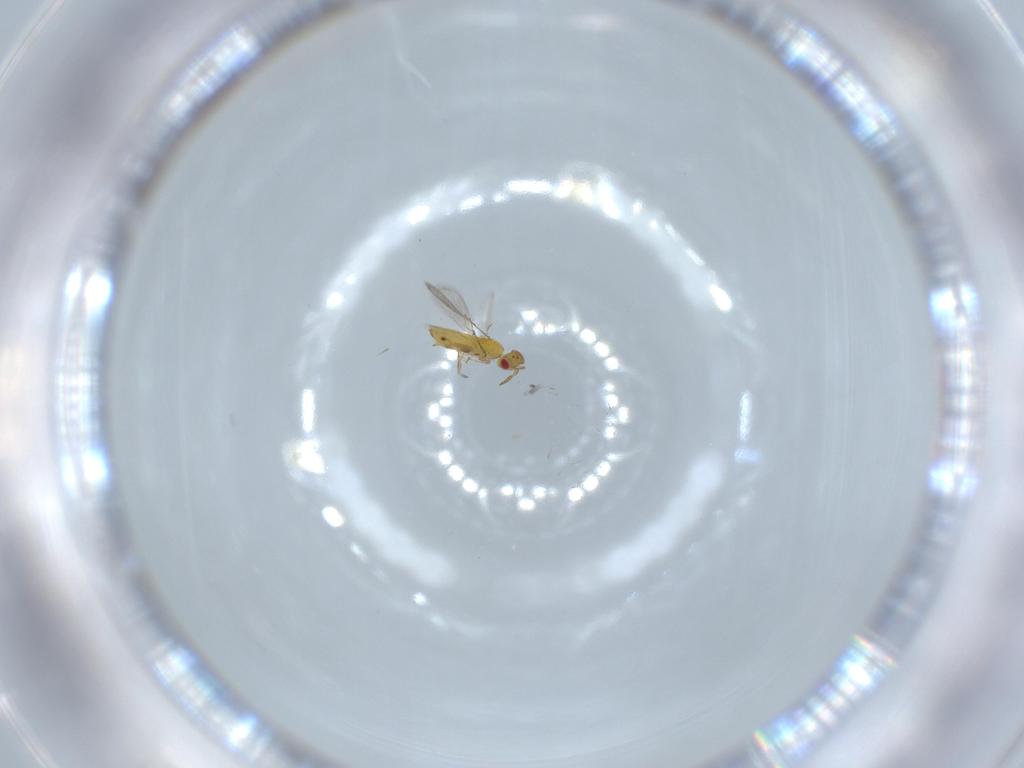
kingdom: Animalia
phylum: Arthropoda
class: Insecta
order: Hymenoptera
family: Trichogrammatidae
